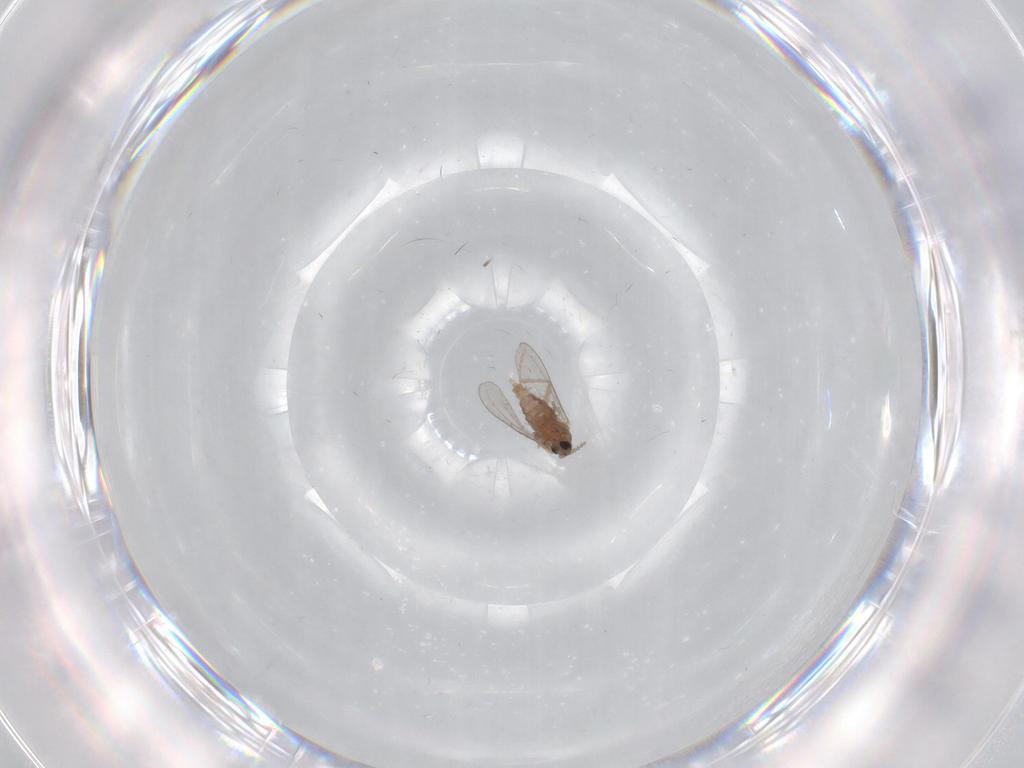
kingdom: Animalia
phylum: Arthropoda
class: Insecta
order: Diptera
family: Cecidomyiidae
